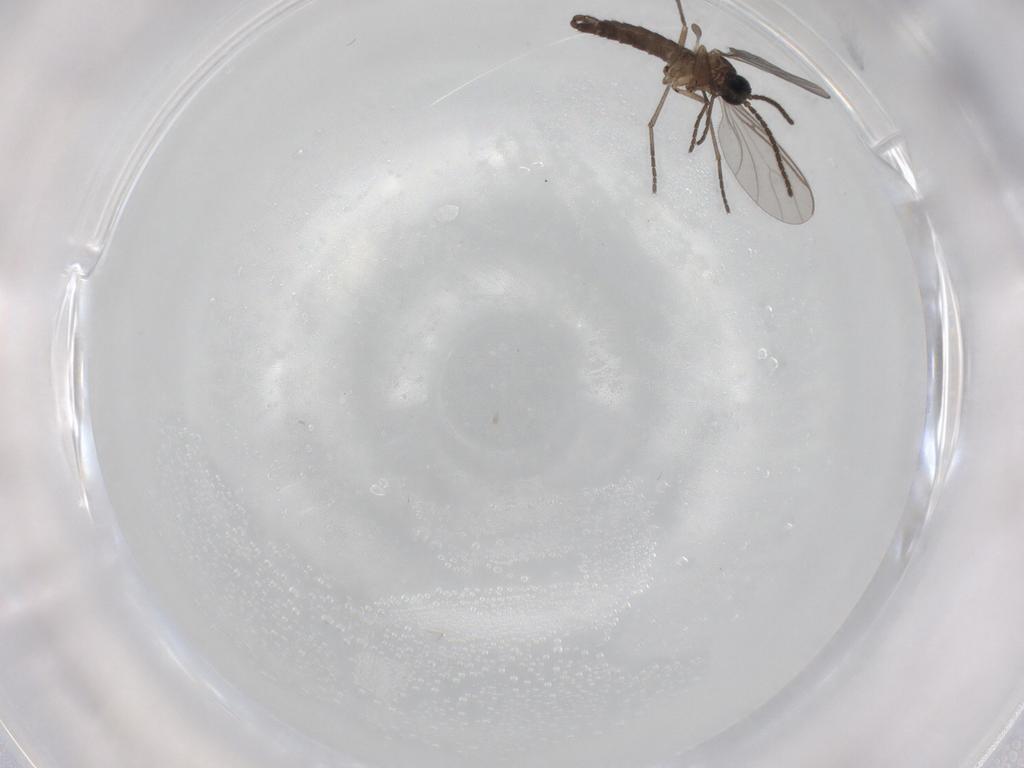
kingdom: Animalia
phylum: Arthropoda
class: Insecta
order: Diptera
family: Sciaridae
